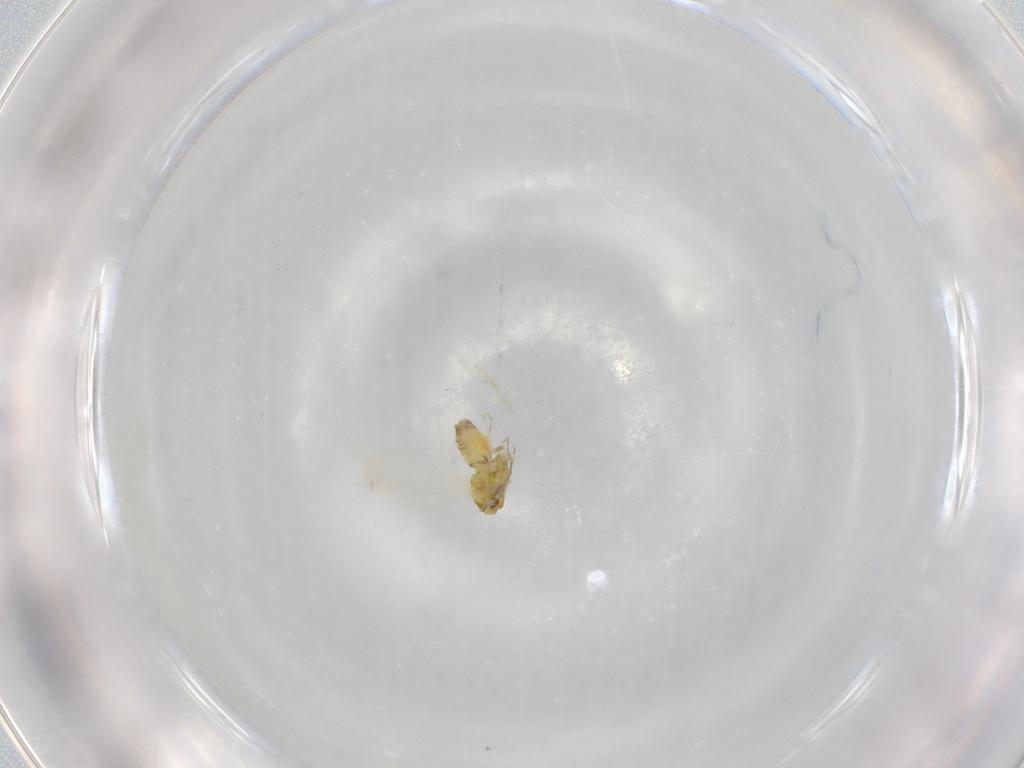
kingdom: Animalia
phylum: Arthropoda
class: Insecta
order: Hemiptera
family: Aleyrodidae
